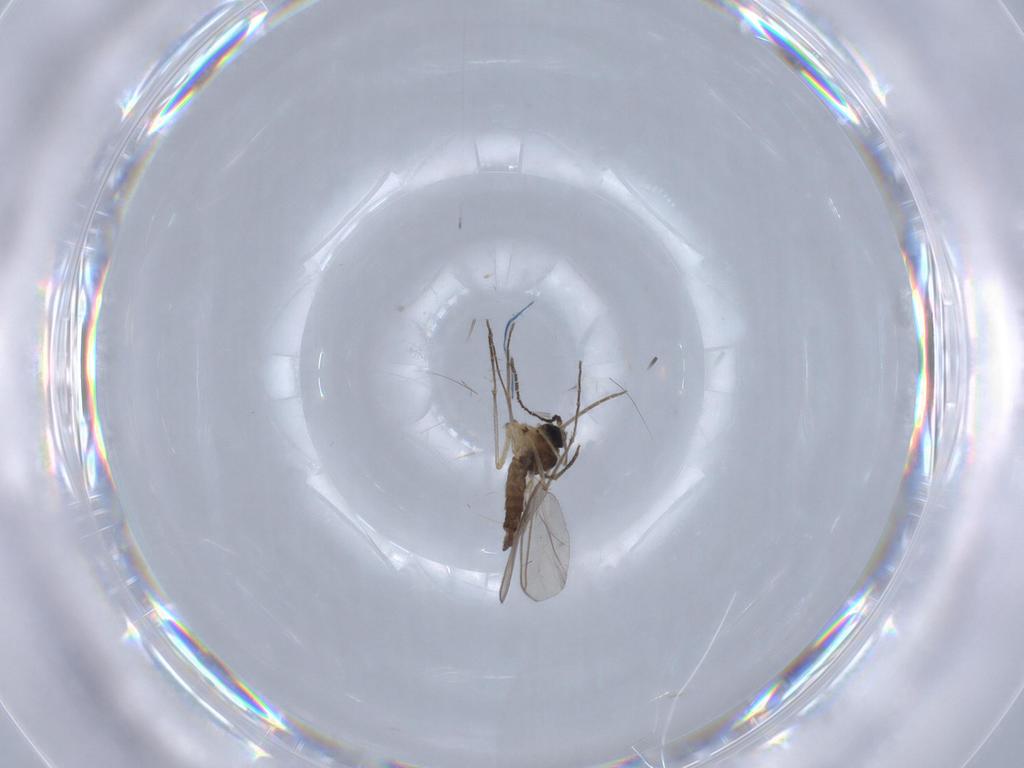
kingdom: Animalia
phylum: Arthropoda
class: Insecta
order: Diptera
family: Sciaridae
